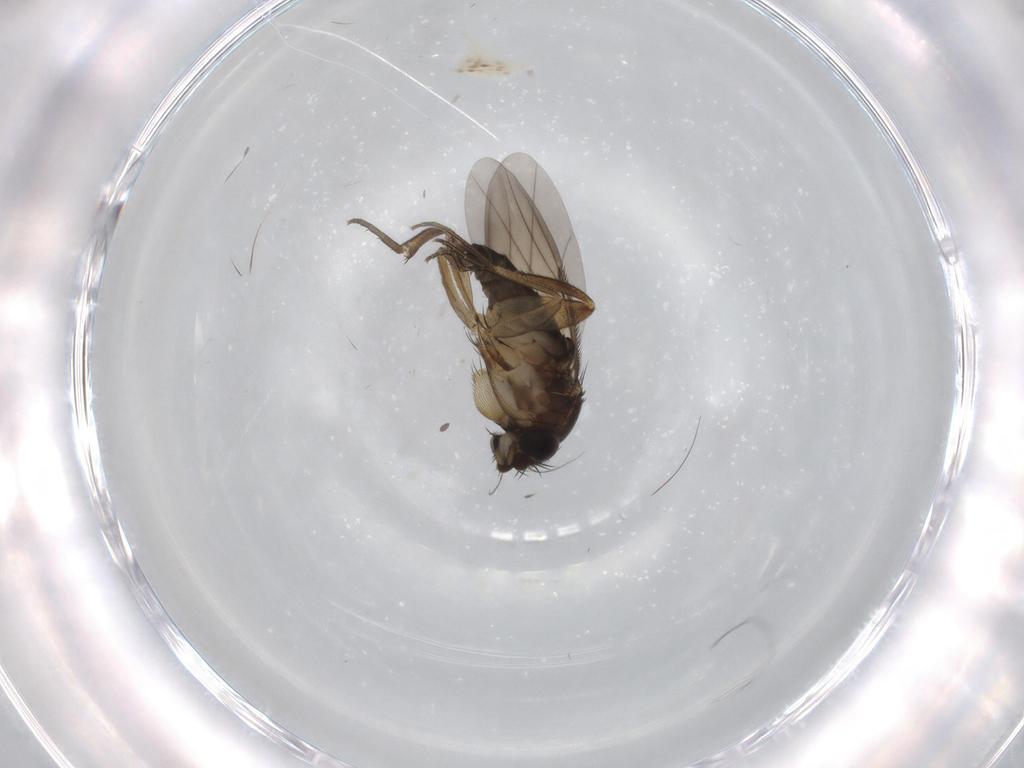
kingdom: Animalia
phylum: Arthropoda
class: Insecta
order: Diptera
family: Phoridae
